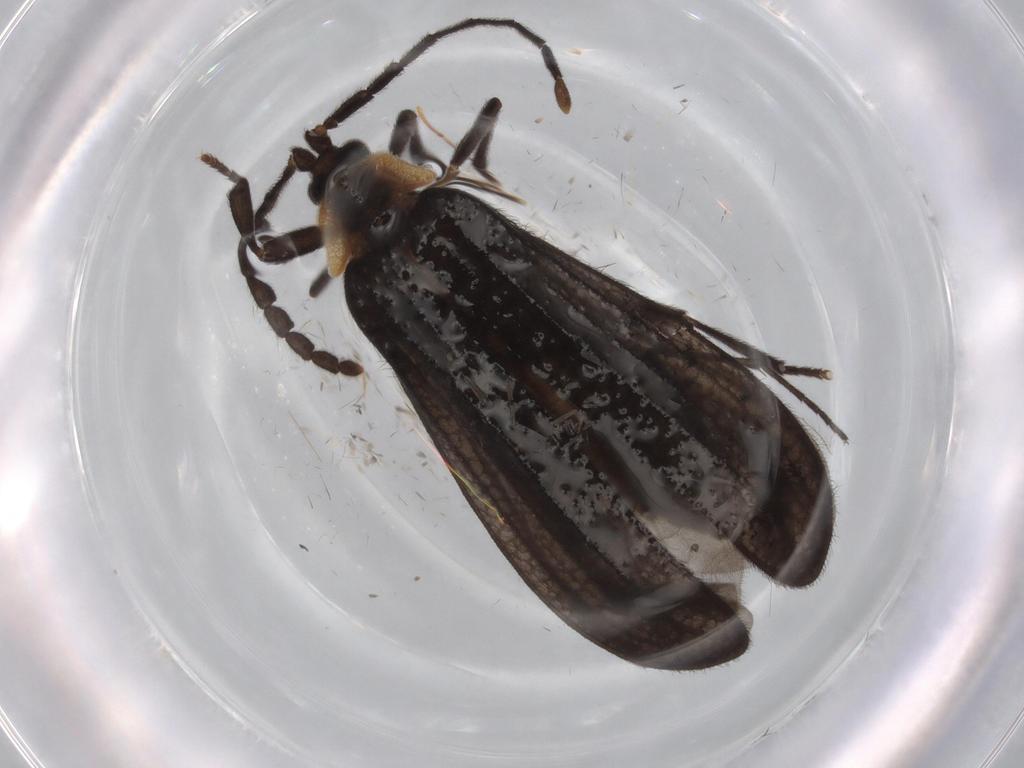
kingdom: Animalia
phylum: Arthropoda
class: Insecta
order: Coleoptera
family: Lycidae
